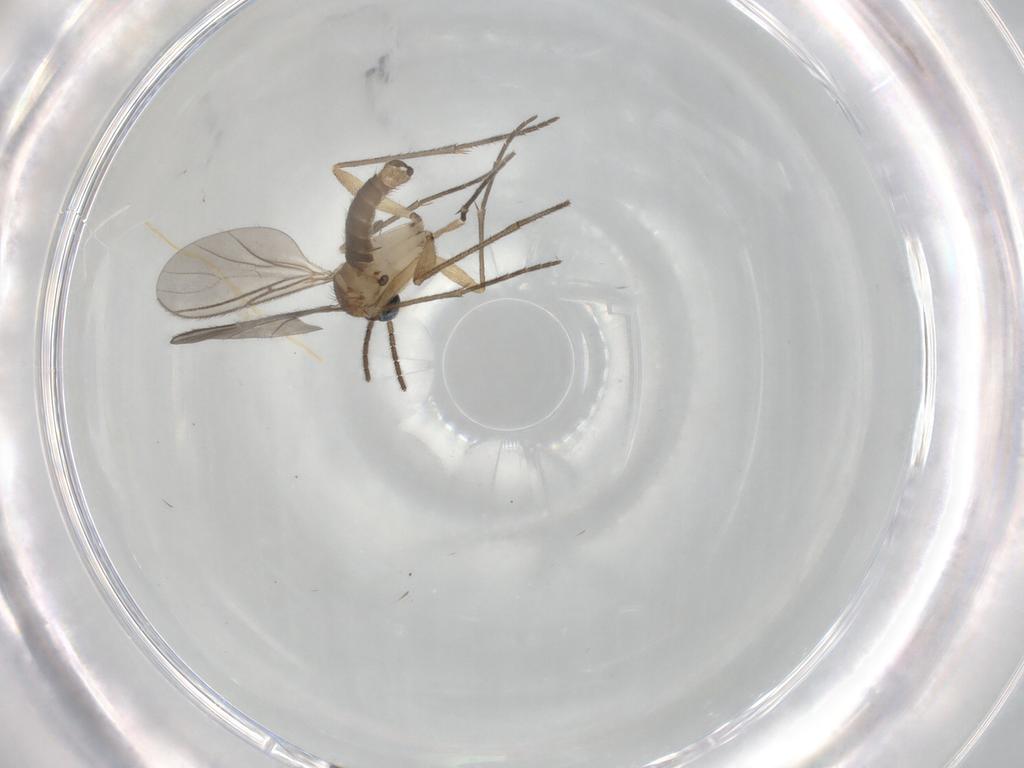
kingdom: Animalia
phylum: Arthropoda
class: Insecta
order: Diptera
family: Sciaridae
